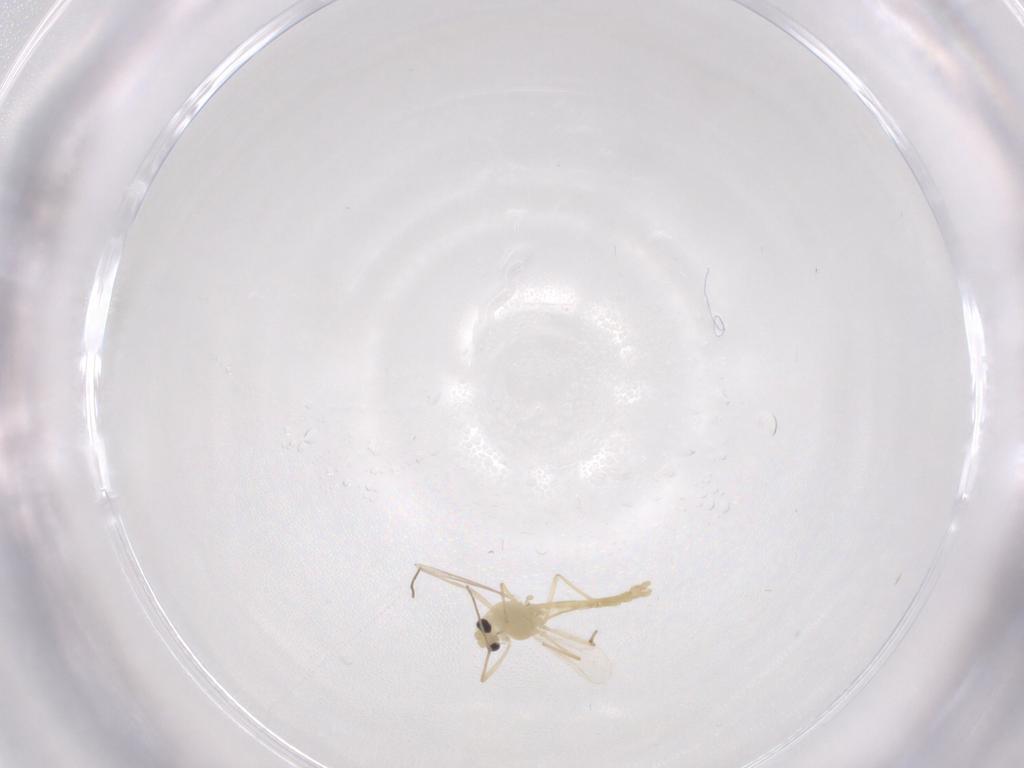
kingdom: Animalia
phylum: Arthropoda
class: Insecta
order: Diptera
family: Chironomidae
